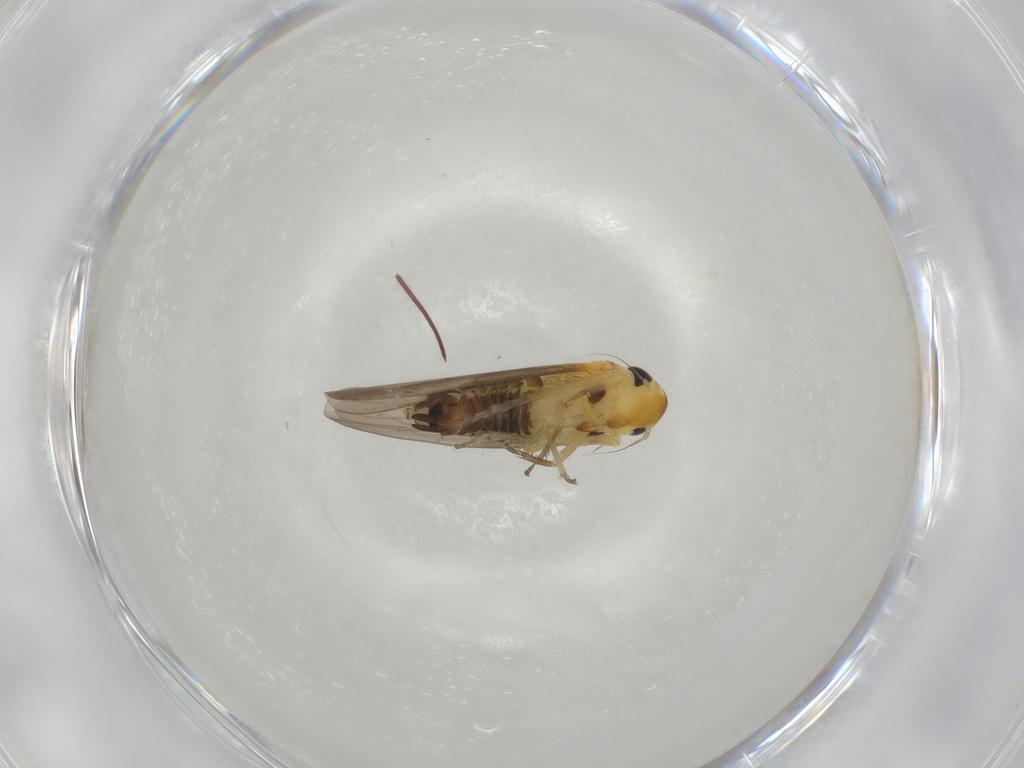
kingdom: Animalia
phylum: Arthropoda
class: Insecta
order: Hemiptera
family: Cicadellidae
